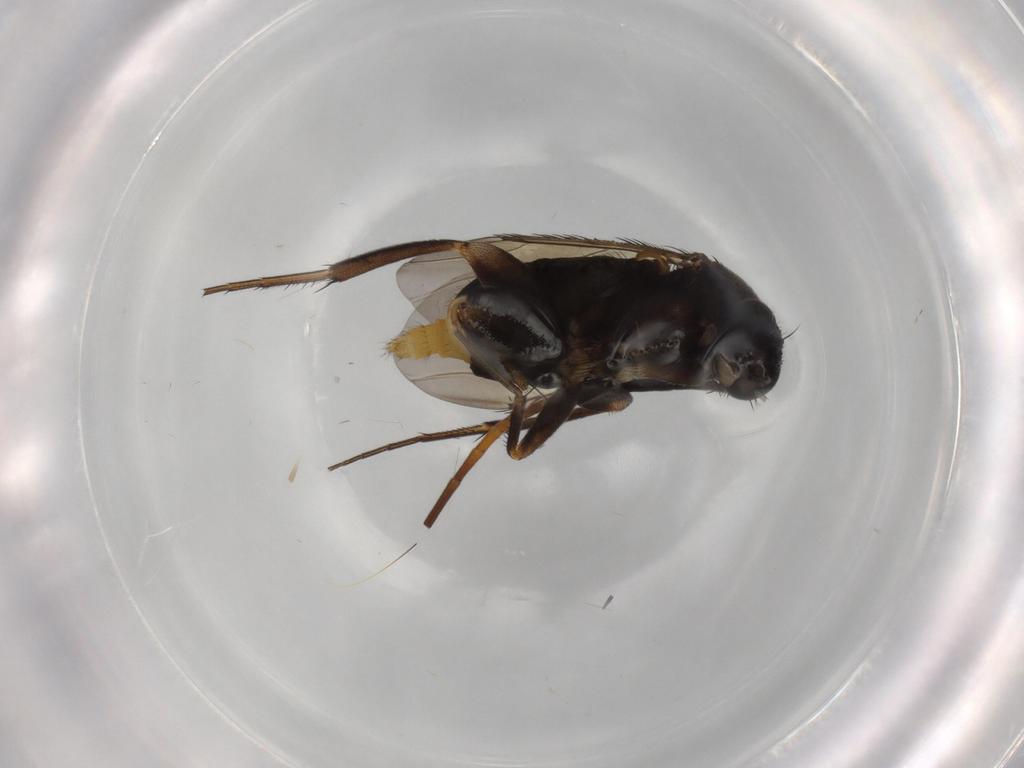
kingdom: Animalia
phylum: Arthropoda
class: Insecta
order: Diptera
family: Phoridae
